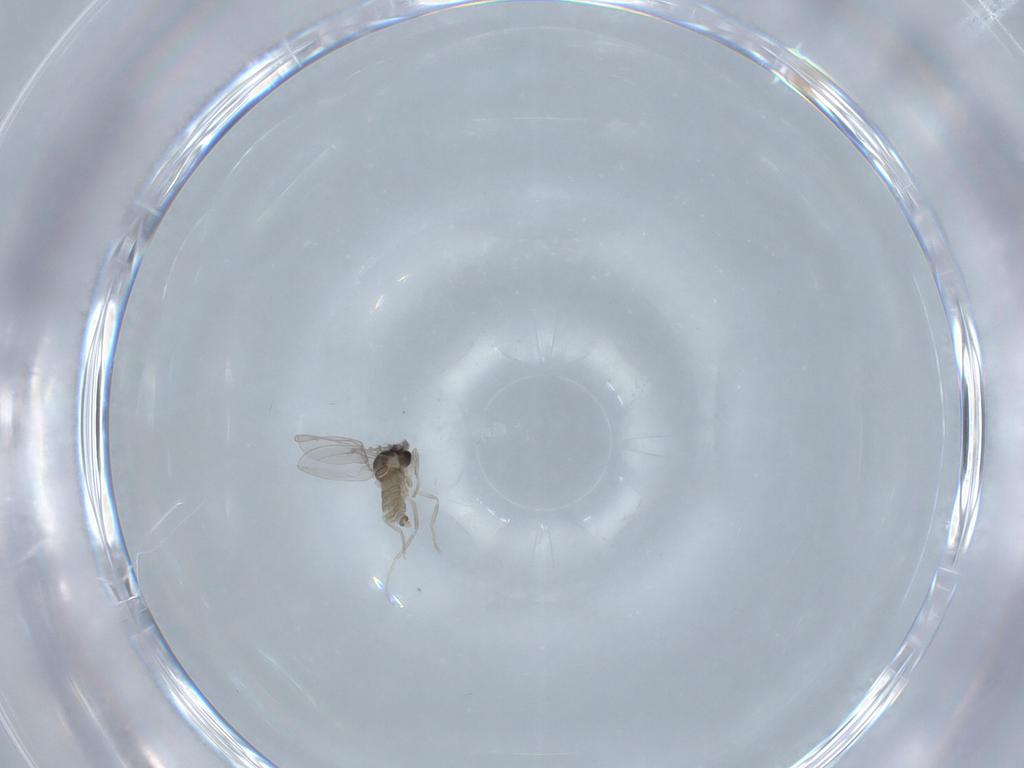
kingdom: Animalia
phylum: Arthropoda
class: Insecta
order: Diptera
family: Cecidomyiidae
